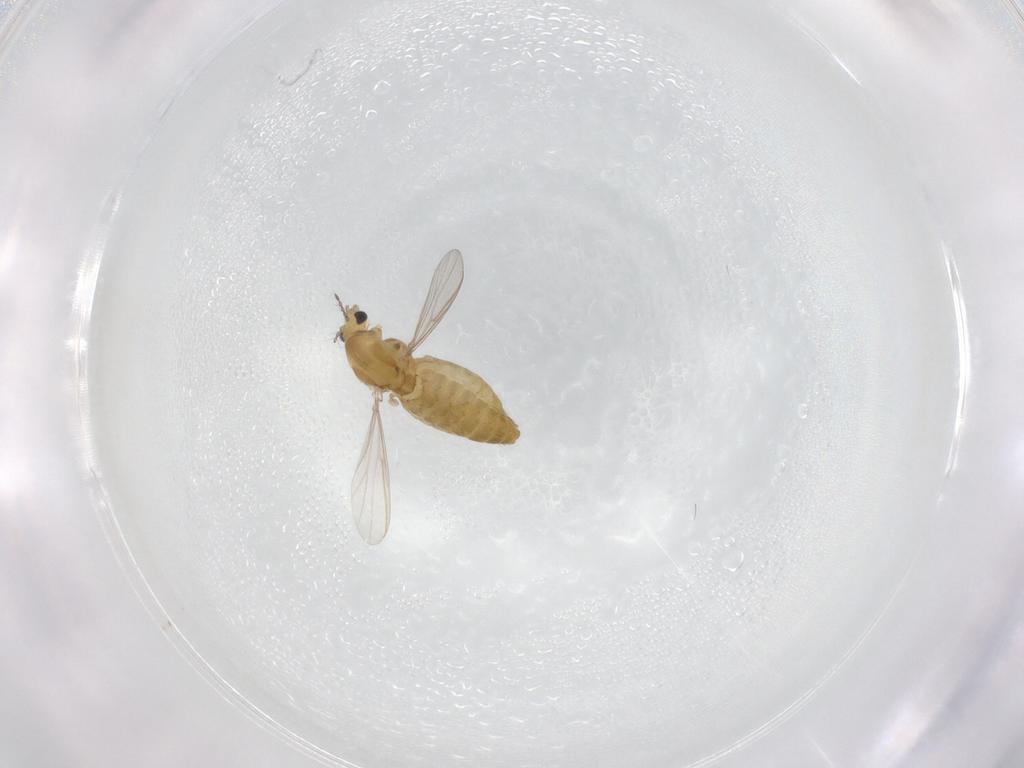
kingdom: Animalia
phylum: Arthropoda
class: Insecta
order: Diptera
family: Chironomidae
